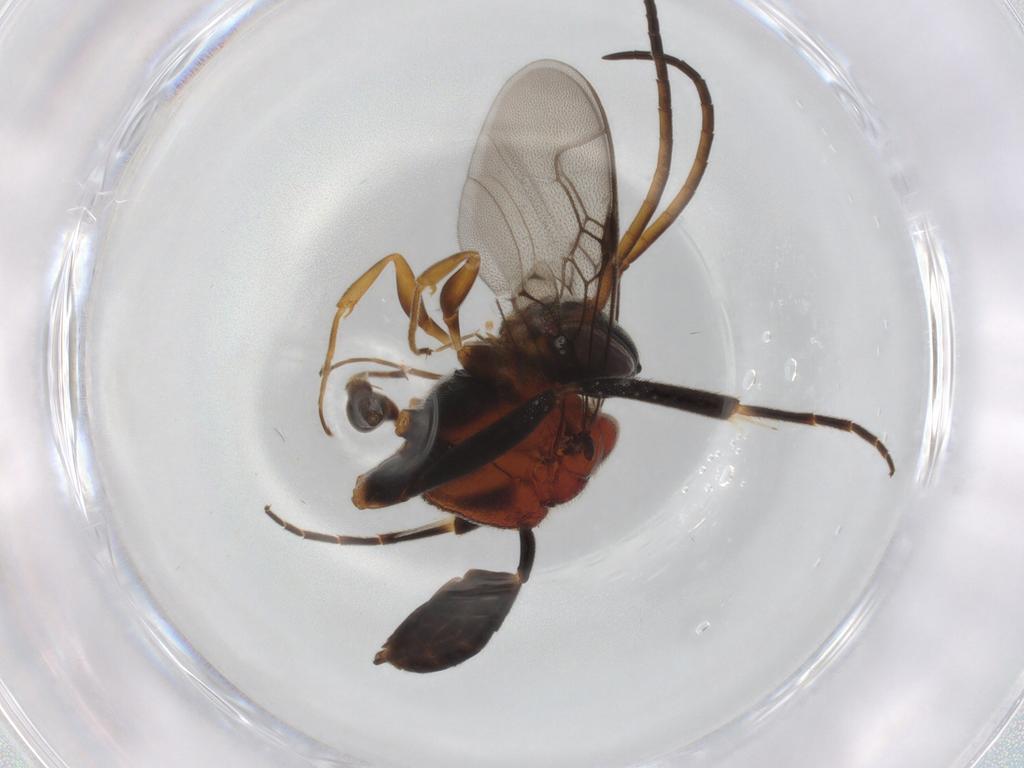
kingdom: Animalia
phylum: Arthropoda
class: Insecta
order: Hymenoptera
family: Evaniidae
